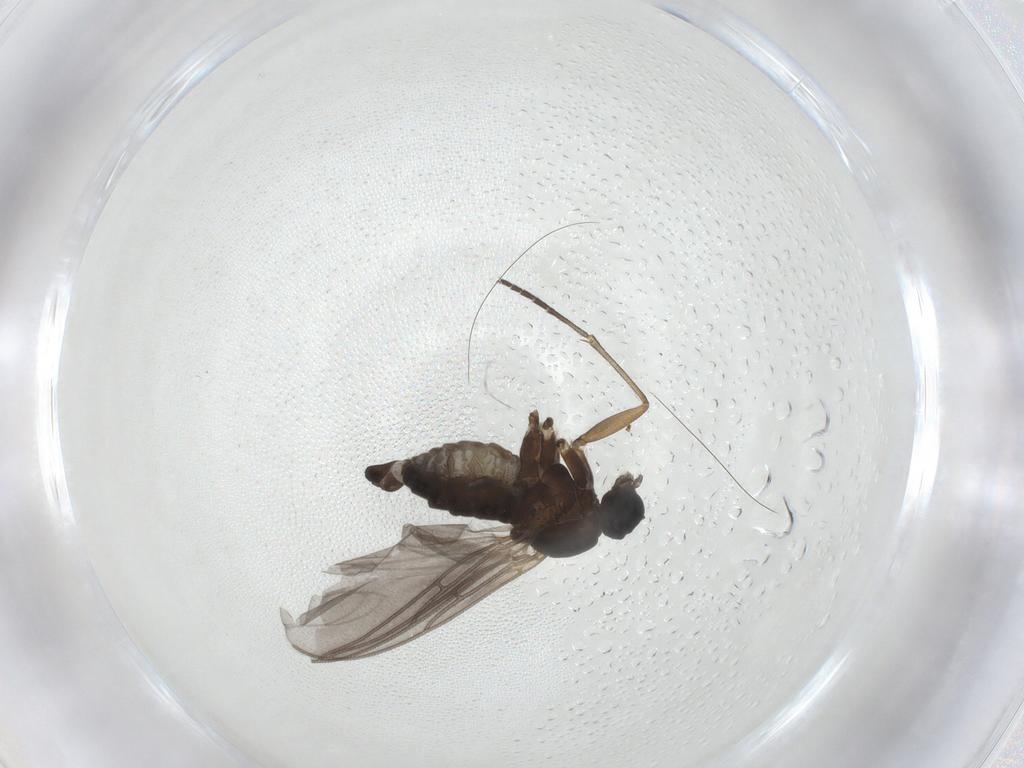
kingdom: Animalia
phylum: Arthropoda
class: Insecta
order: Diptera
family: Sciaridae
